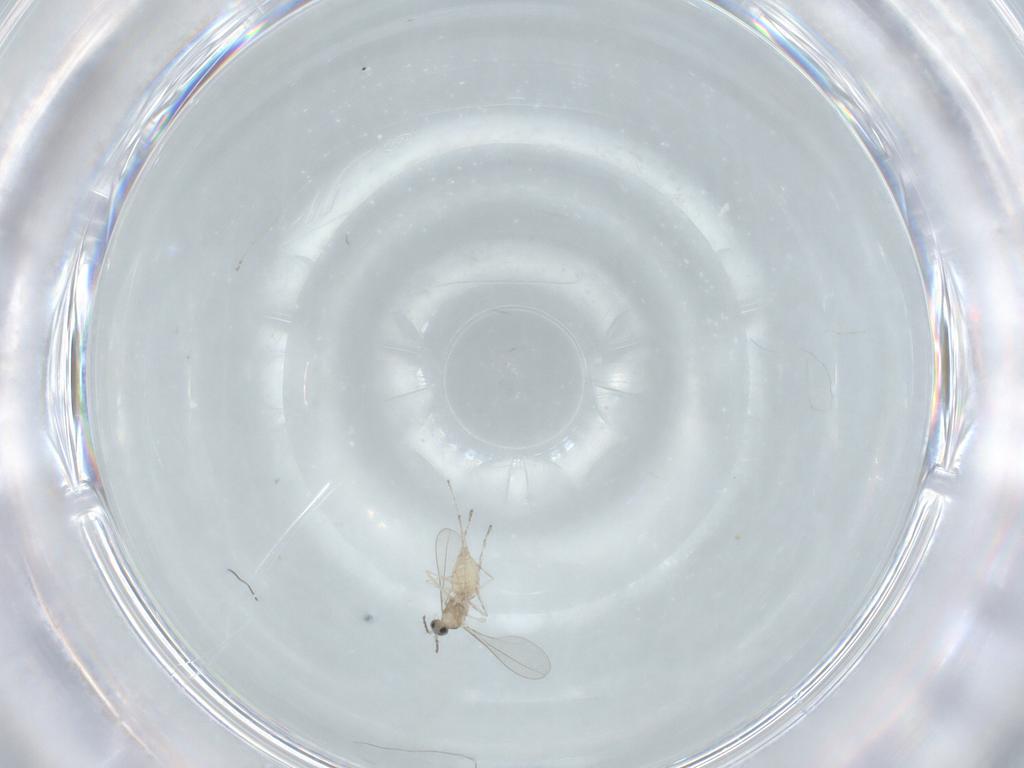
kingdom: Animalia
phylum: Arthropoda
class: Insecta
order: Diptera
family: Cecidomyiidae
